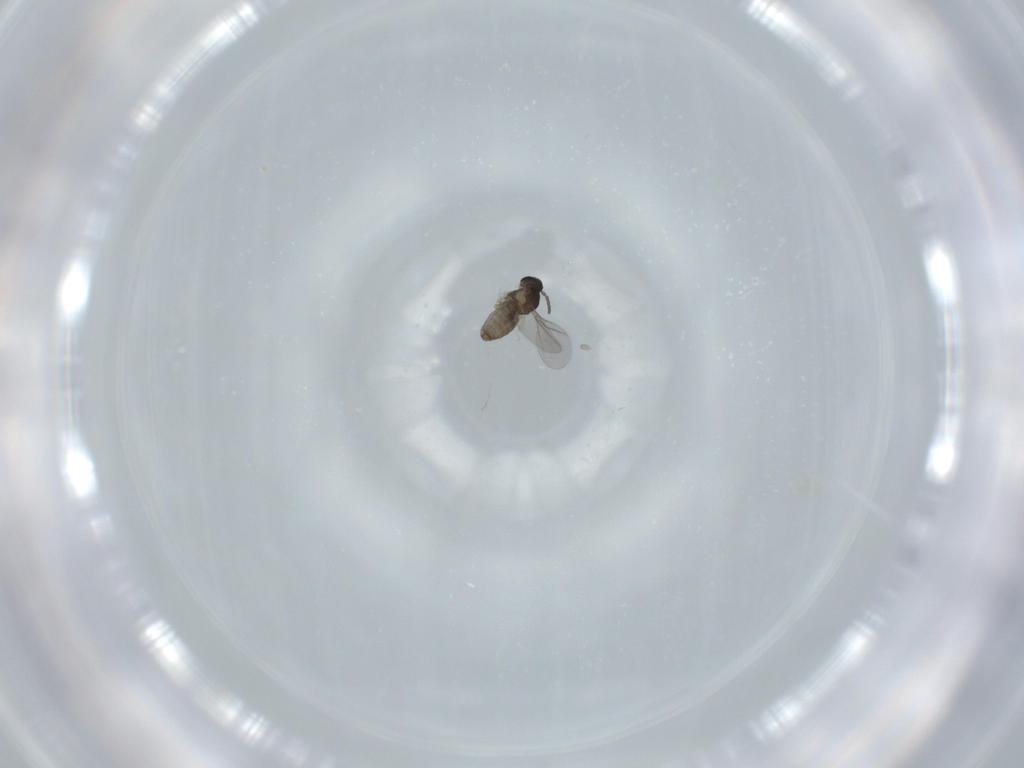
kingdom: Animalia
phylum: Arthropoda
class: Insecta
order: Diptera
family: Cecidomyiidae
